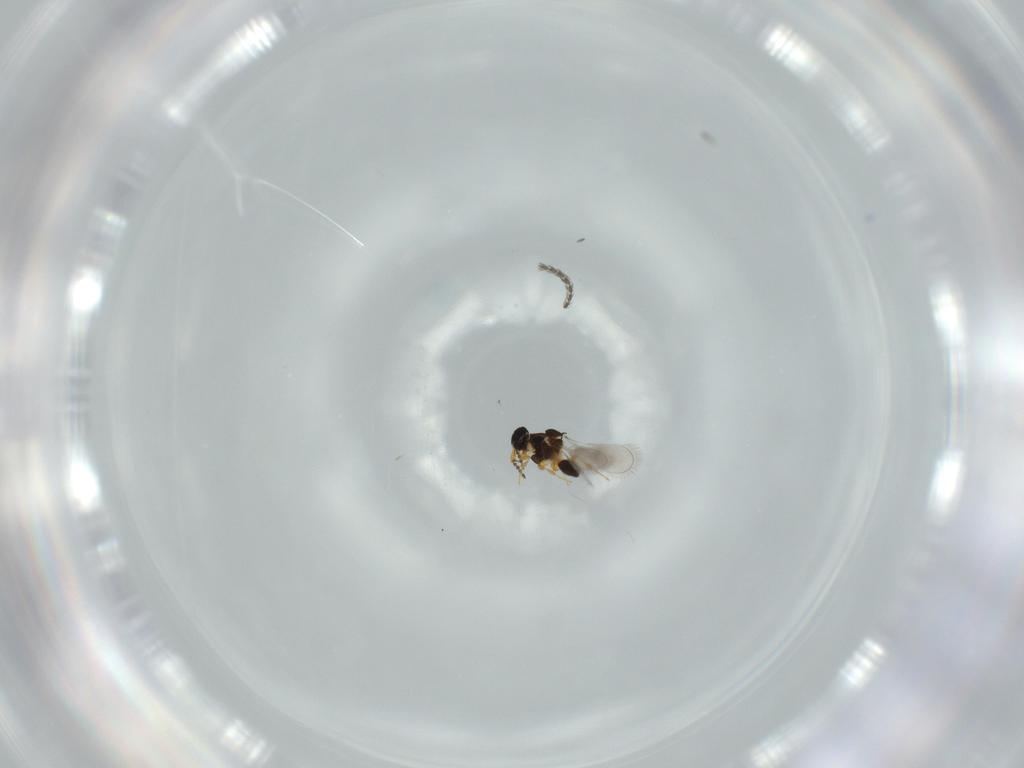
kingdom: Animalia
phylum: Arthropoda
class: Insecta
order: Hymenoptera
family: Platygastridae
